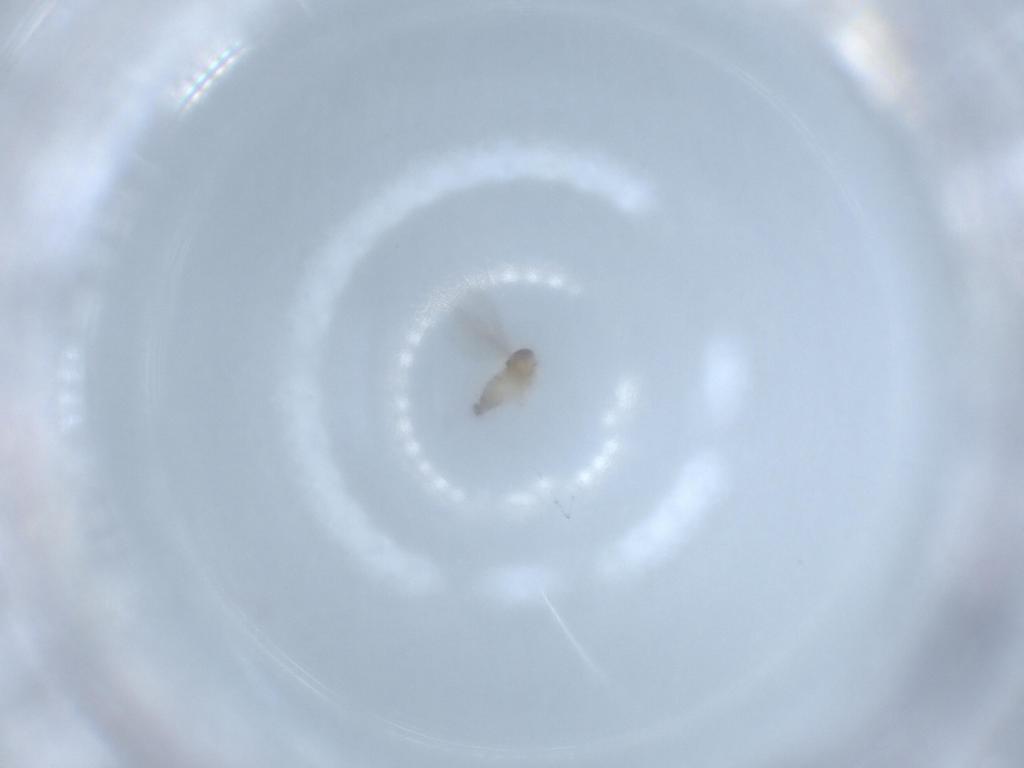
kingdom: Animalia
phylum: Arthropoda
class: Insecta
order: Diptera
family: Cecidomyiidae
